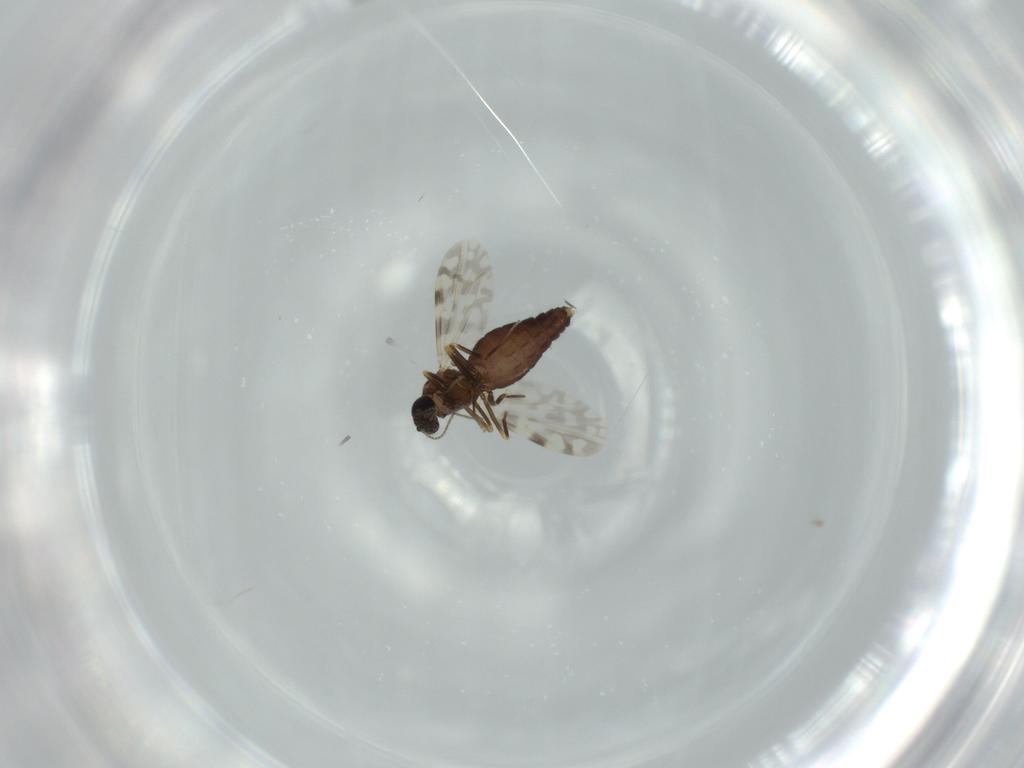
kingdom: Animalia
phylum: Arthropoda
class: Insecta
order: Diptera
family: Ceratopogonidae
